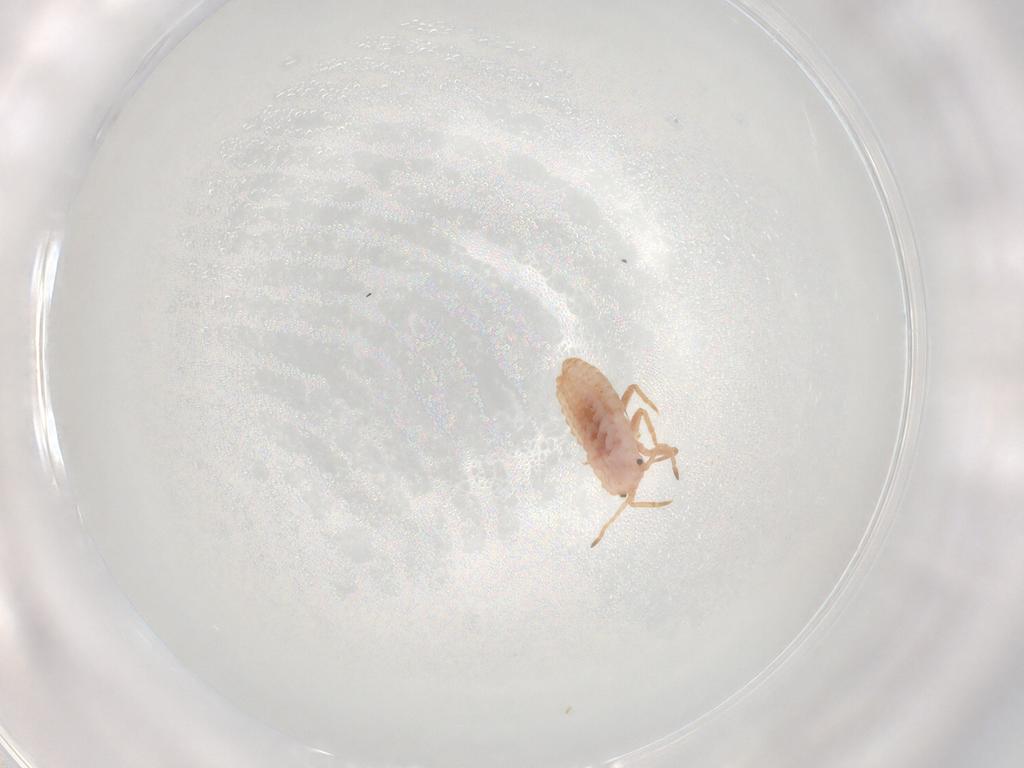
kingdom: Animalia
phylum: Arthropoda
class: Insecta
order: Hemiptera
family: Coccoidea_incertae_sedis
